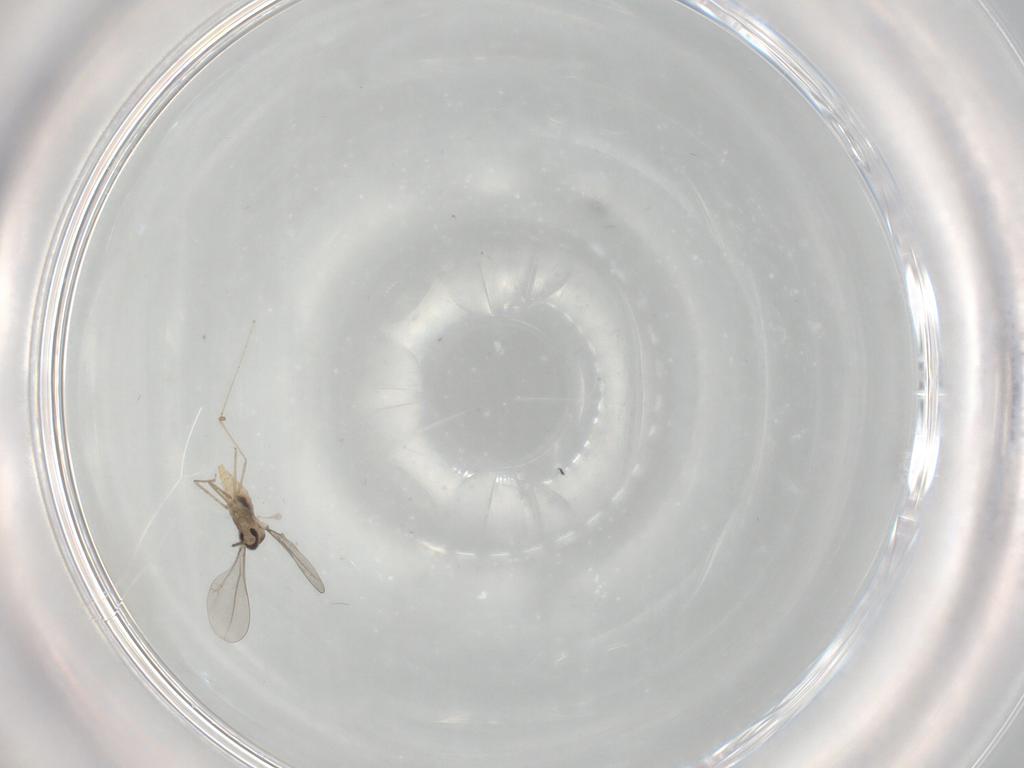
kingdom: Animalia
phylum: Arthropoda
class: Insecta
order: Diptera
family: Cecidomyiidae
